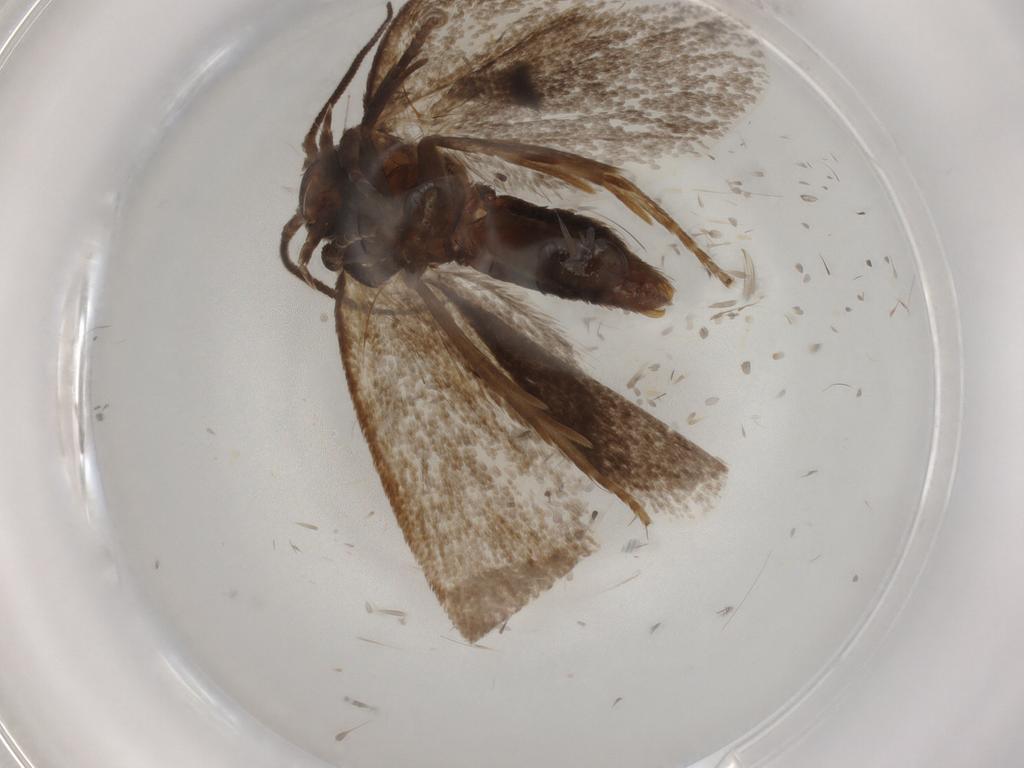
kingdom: Animalia
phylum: Arthropoda
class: Insecta
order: Lepidoptera
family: Tineidae
